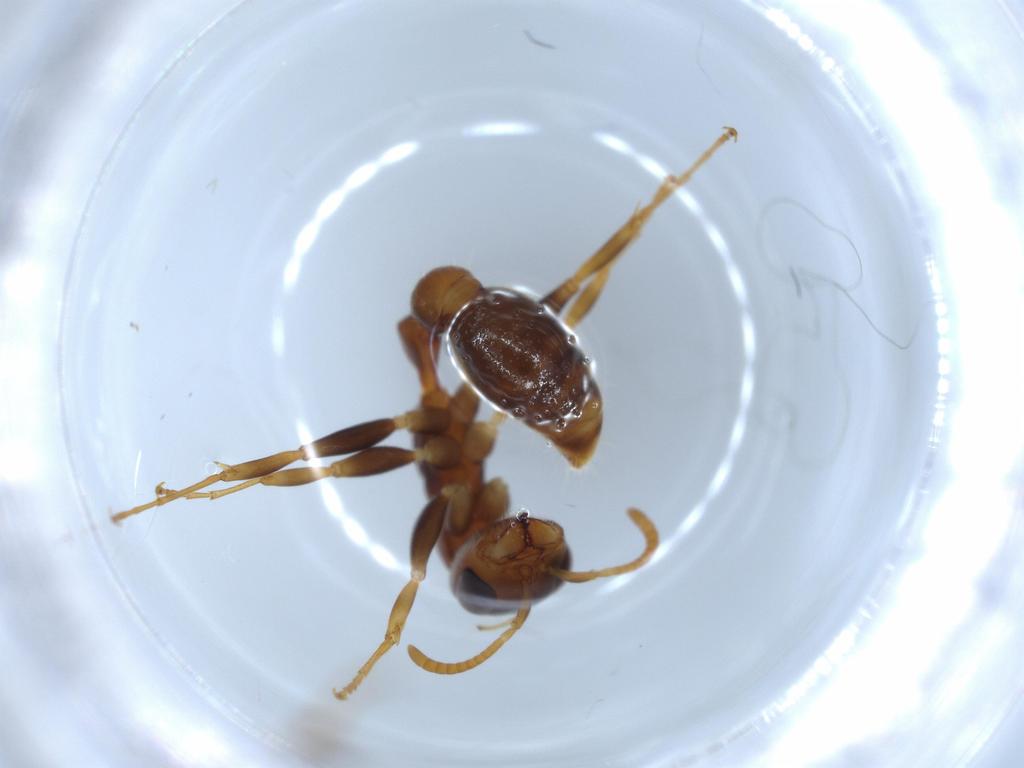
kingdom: Animalia
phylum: Arthropoda
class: Insecta
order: Hymenoptera
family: Formicidae
